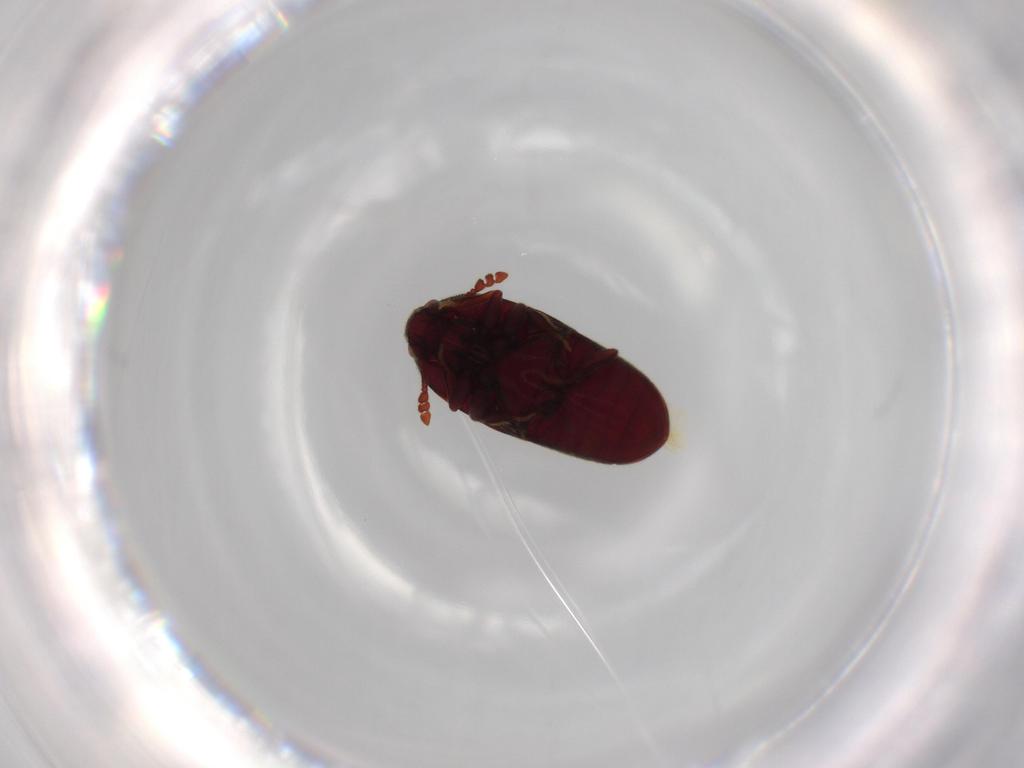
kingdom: Animalia
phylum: Arthropoda
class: Insecta
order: Coleoptera
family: Throscidae
